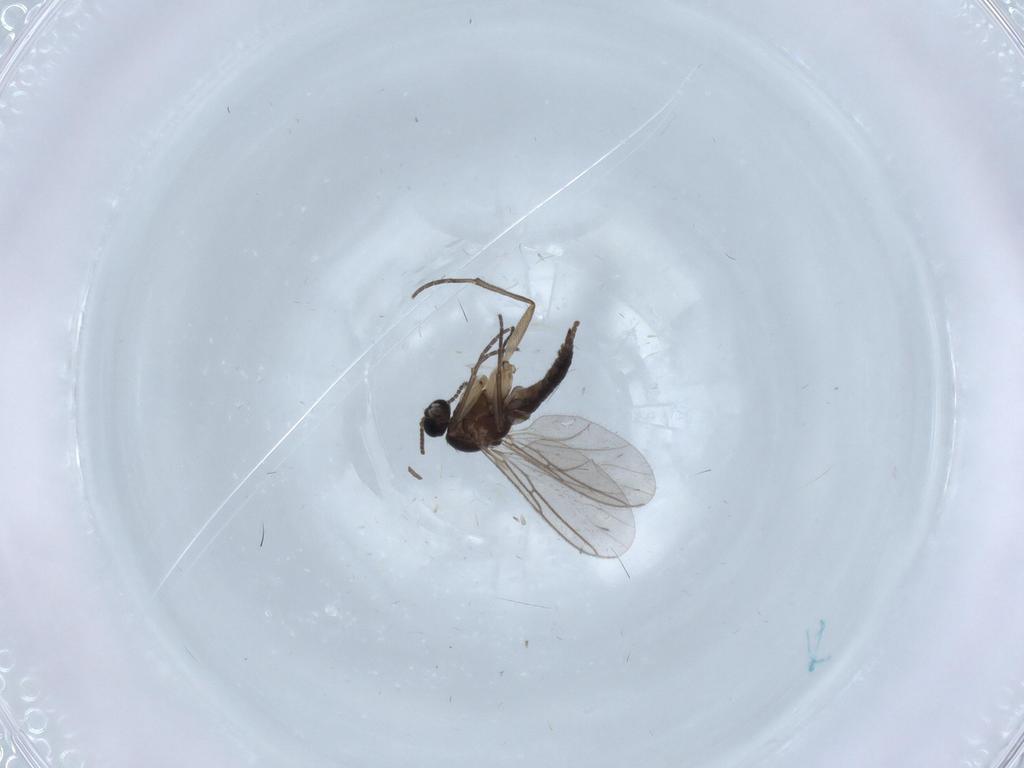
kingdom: Animalia
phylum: Arthropoda
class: Insecta
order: Diptera
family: Sciaridae
